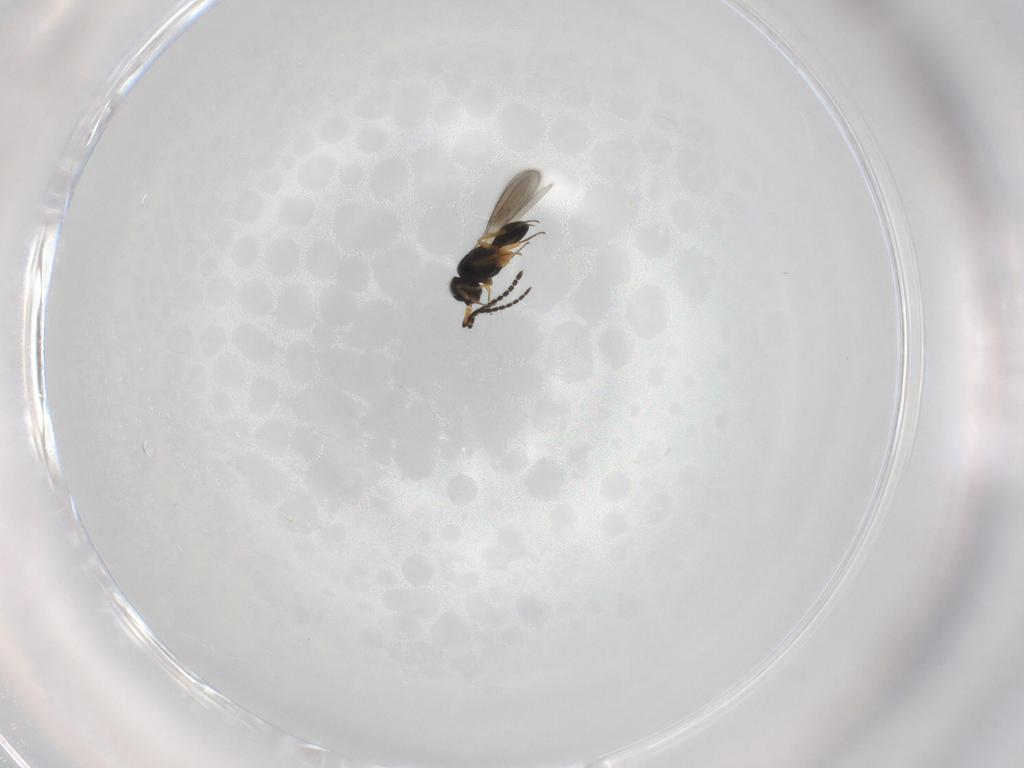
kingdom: Animalia
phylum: Arthropoda
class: Insecta
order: Hymenoptera
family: Scelionidae
